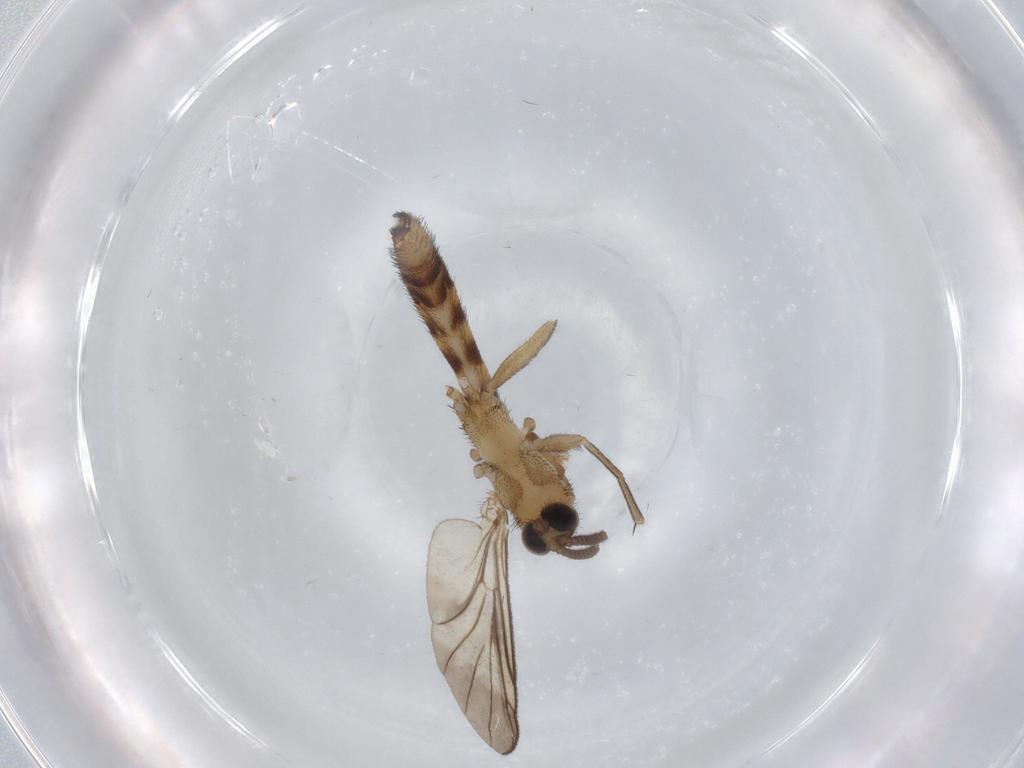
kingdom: Animalia
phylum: Arthropoda
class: Insecta
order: Diptera
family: Keroplatidae
